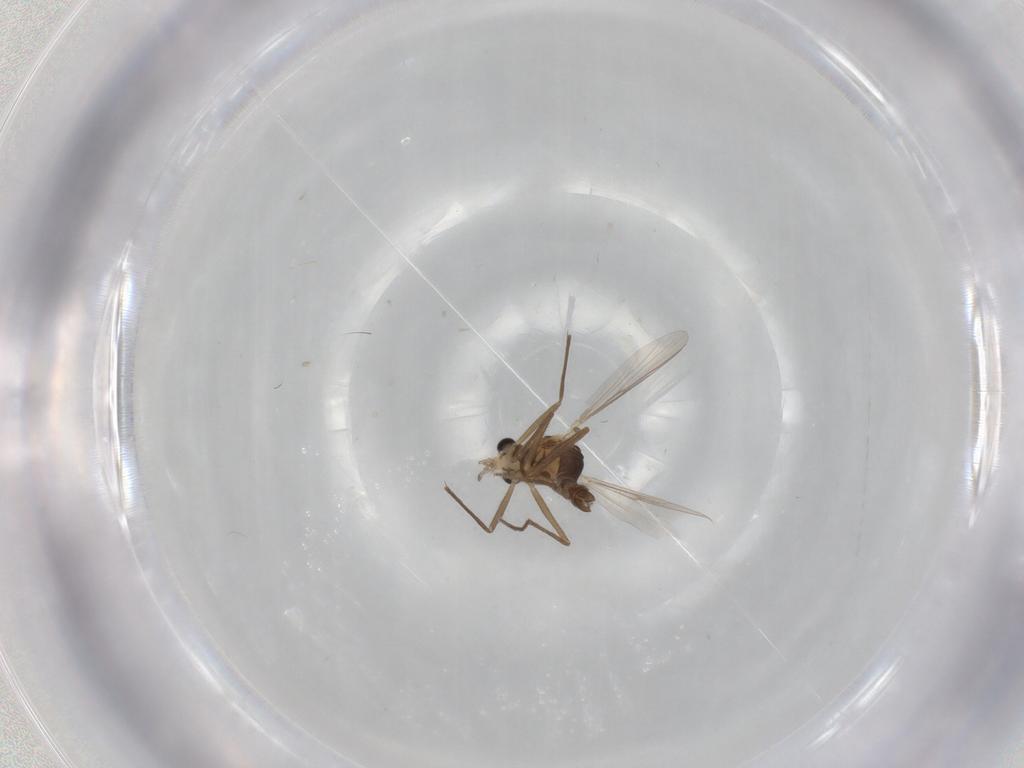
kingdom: Animalia
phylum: Arthropoda
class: Insecta
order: Diptera
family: Chironomidae
